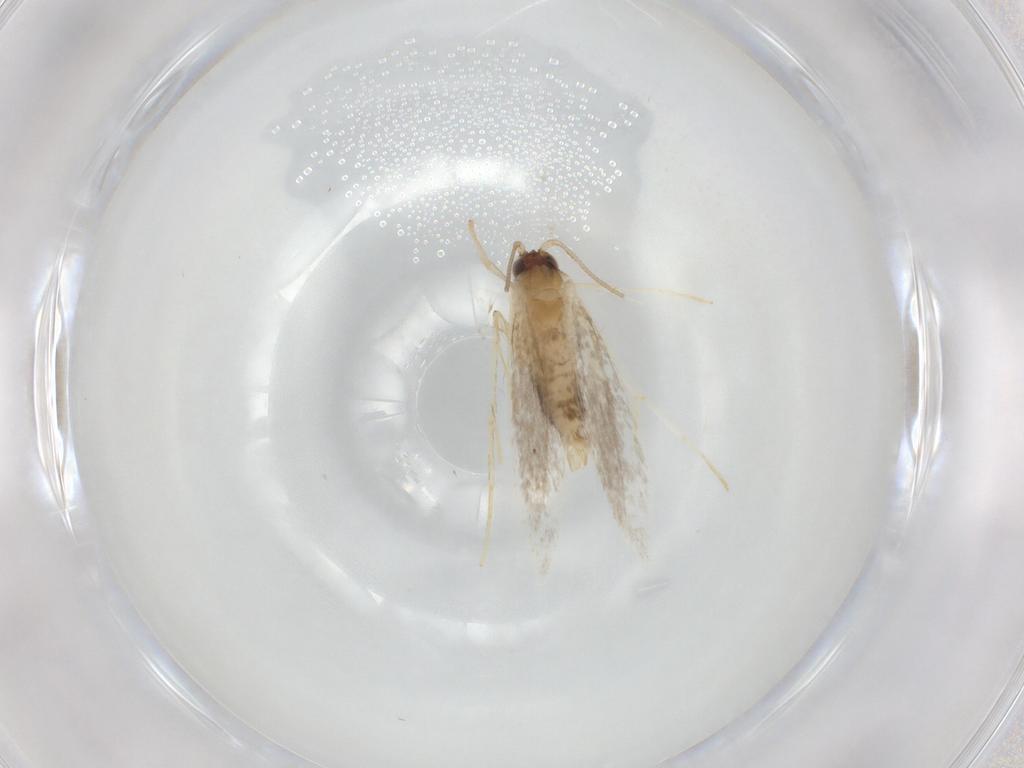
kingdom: Animalia
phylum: Arthropoda
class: Insecta
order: Lepidoptera
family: Tineidae
